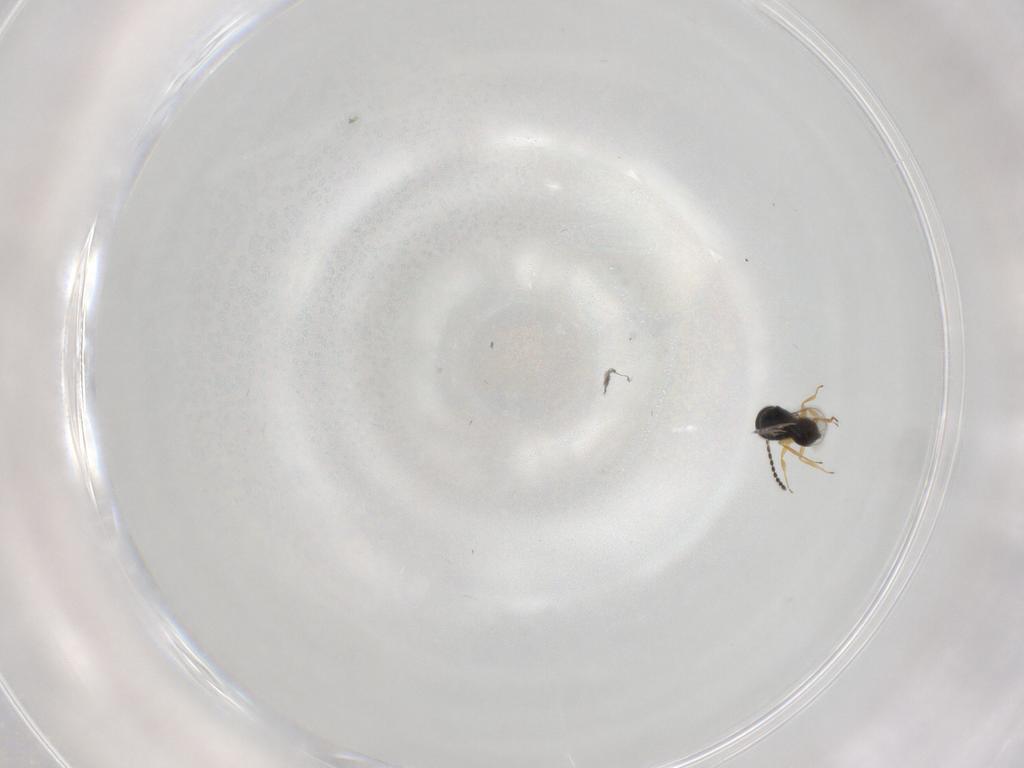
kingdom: Animalia
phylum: Arthropoda
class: Insecta
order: Hymenoptera
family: Scelionidae
